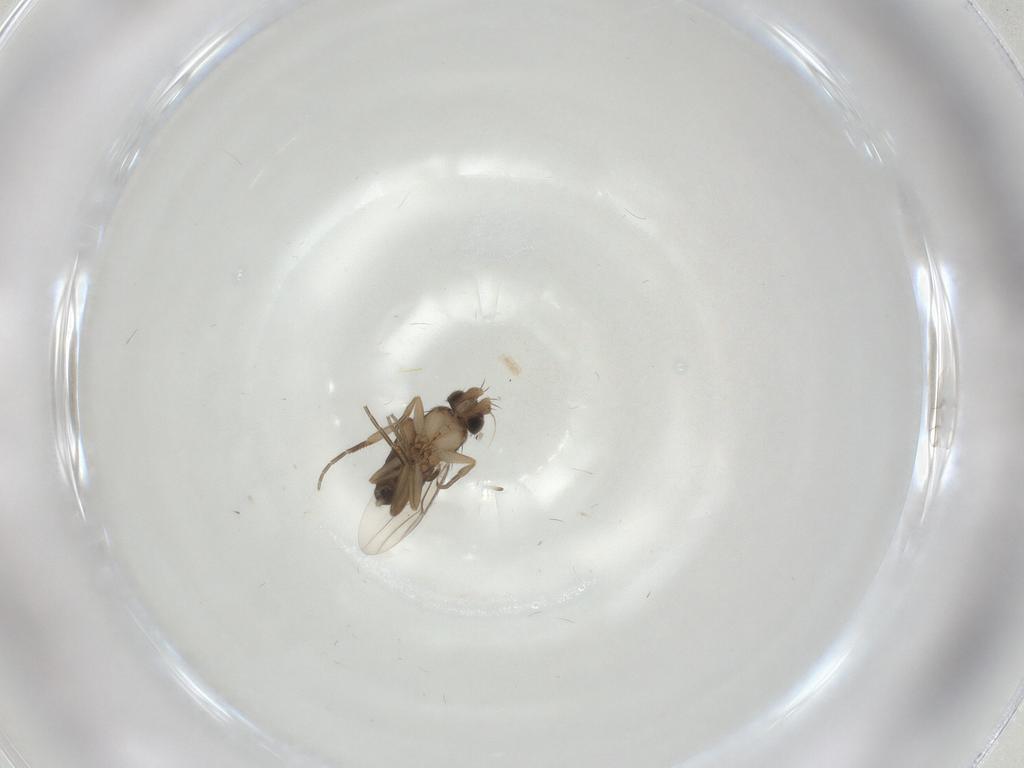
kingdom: Animalia
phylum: Arthropoda
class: Insecta
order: Diptera
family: Phoridae
